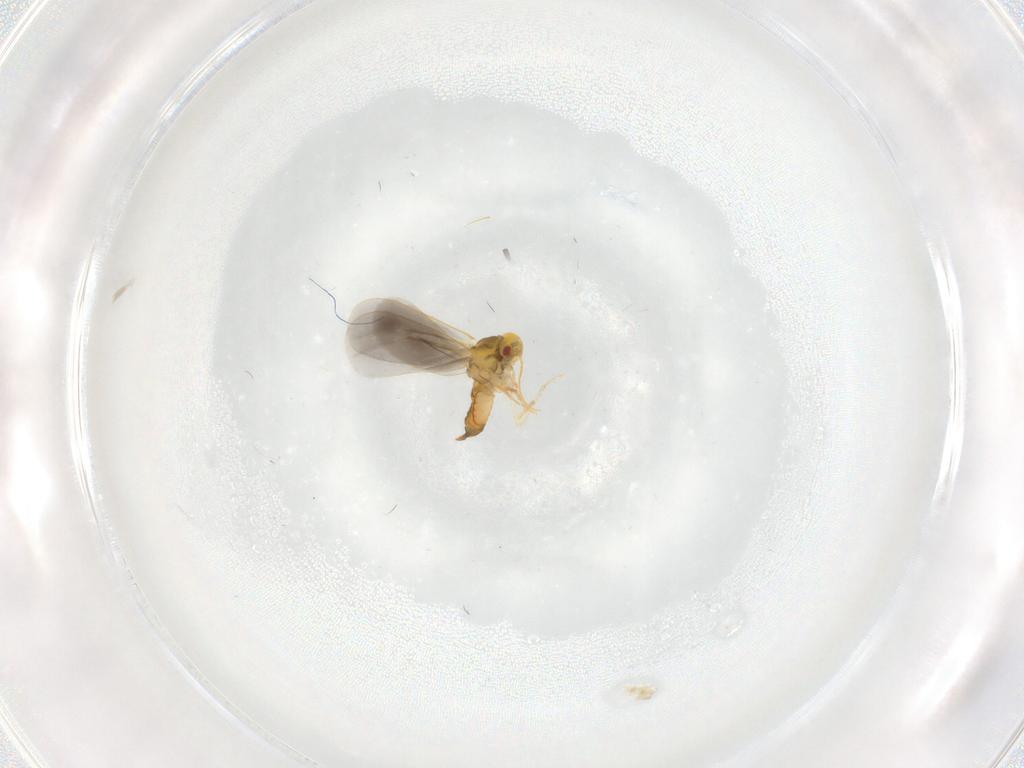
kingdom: Animalia
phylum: Arthropoda
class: Insecta
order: Hemiptera
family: Aleyrodidae
